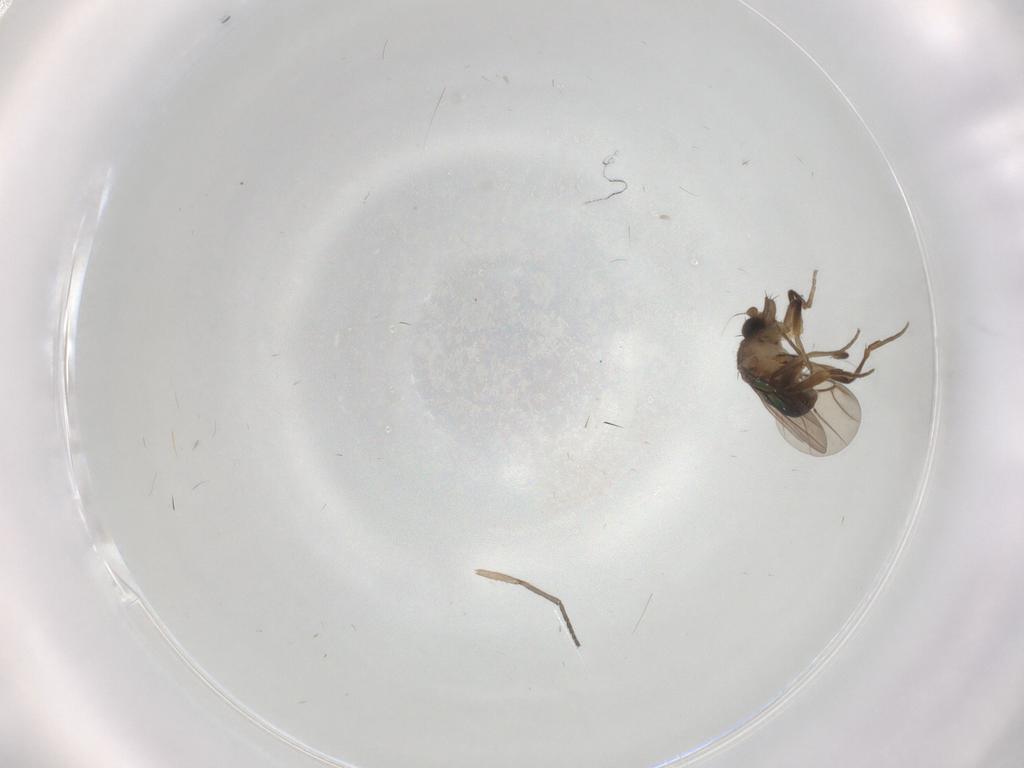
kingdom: Animalia
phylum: Arthropoda
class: Insecta
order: Diptera
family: Phoridae
